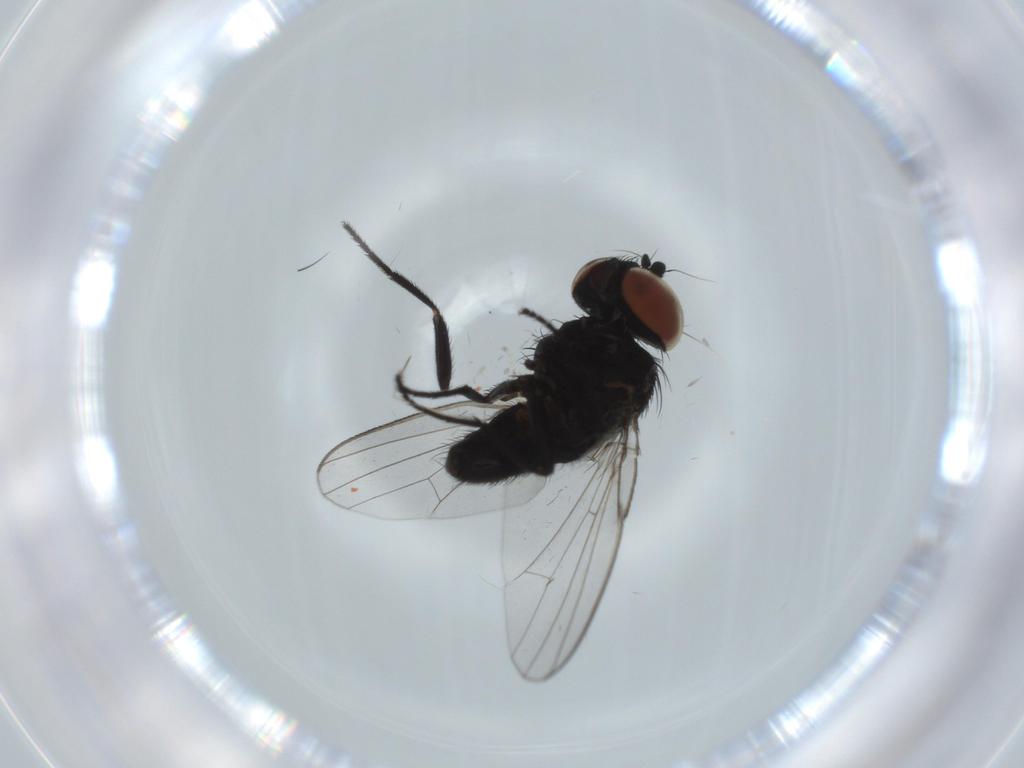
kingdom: Animalia
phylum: Arthropoda
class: Insecta
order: Diptera
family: Milichiidae
